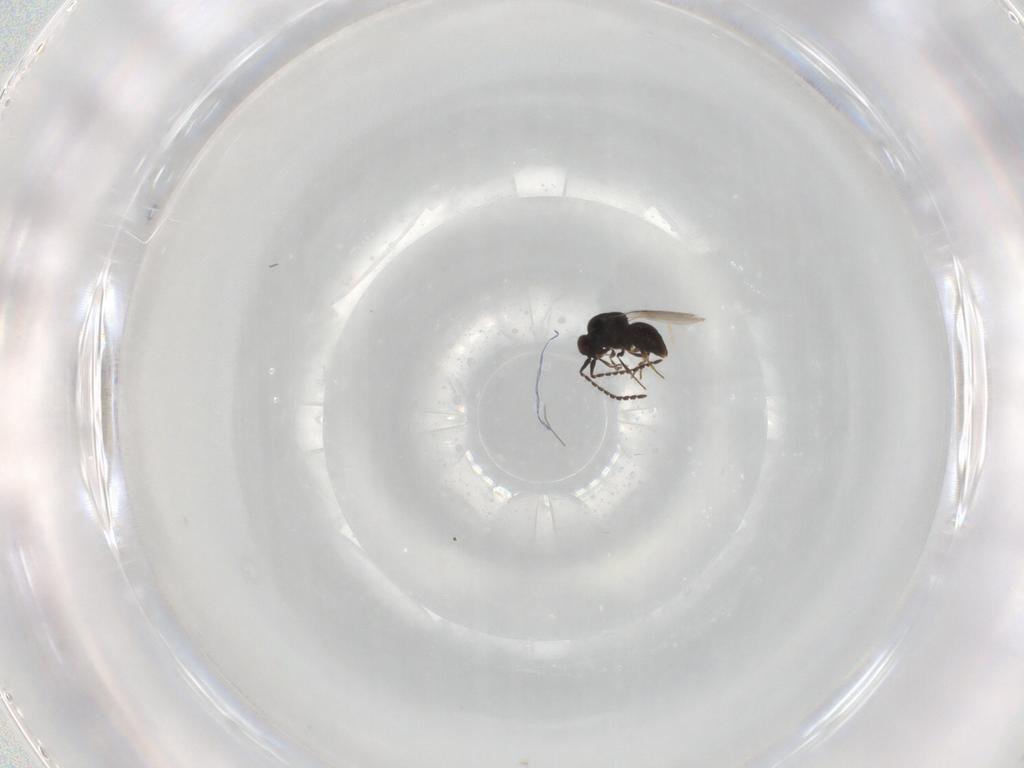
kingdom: Animalia
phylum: Arthropoda
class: Insecta
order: Hymenoptera
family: Ceraphronidae
